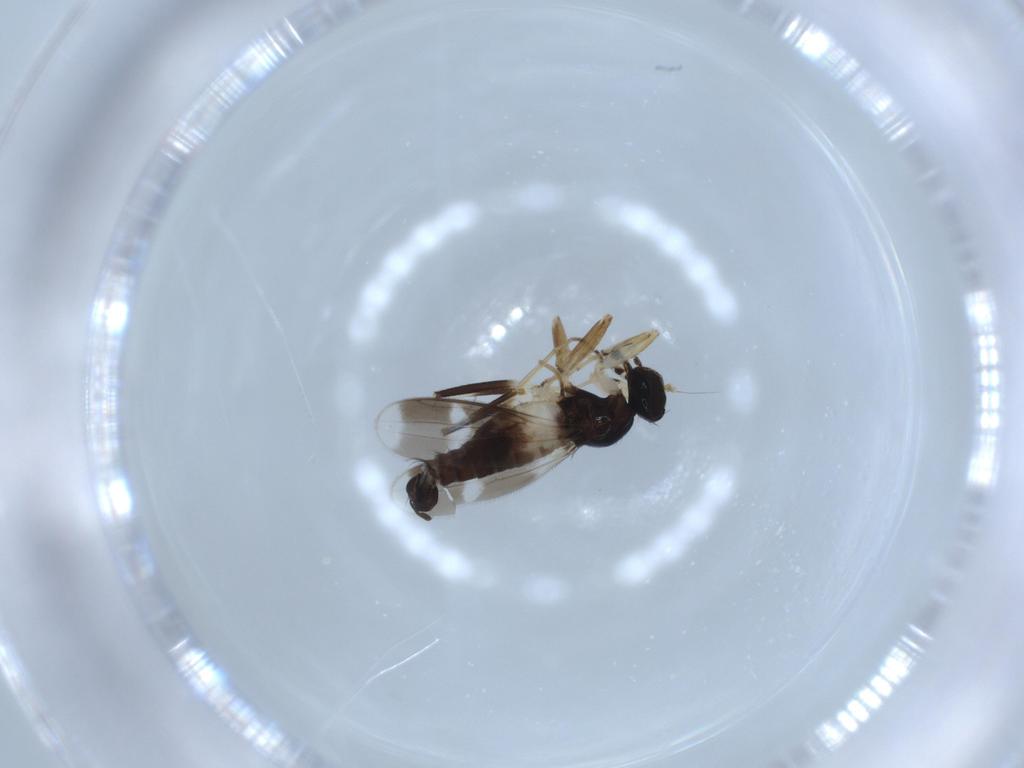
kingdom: Animalia
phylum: Arthropoda
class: Insecta
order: Diptera
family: Hybotidae
